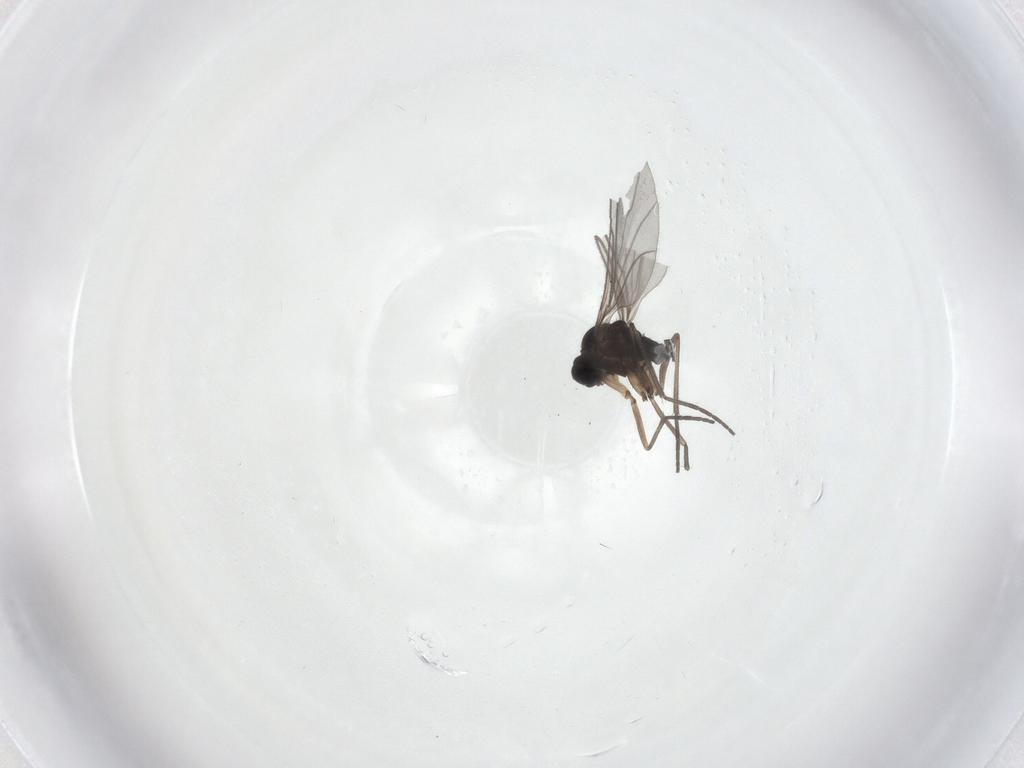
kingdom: Animalia
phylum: Arthropoda
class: Insecta
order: Diptera
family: Sciaridae
